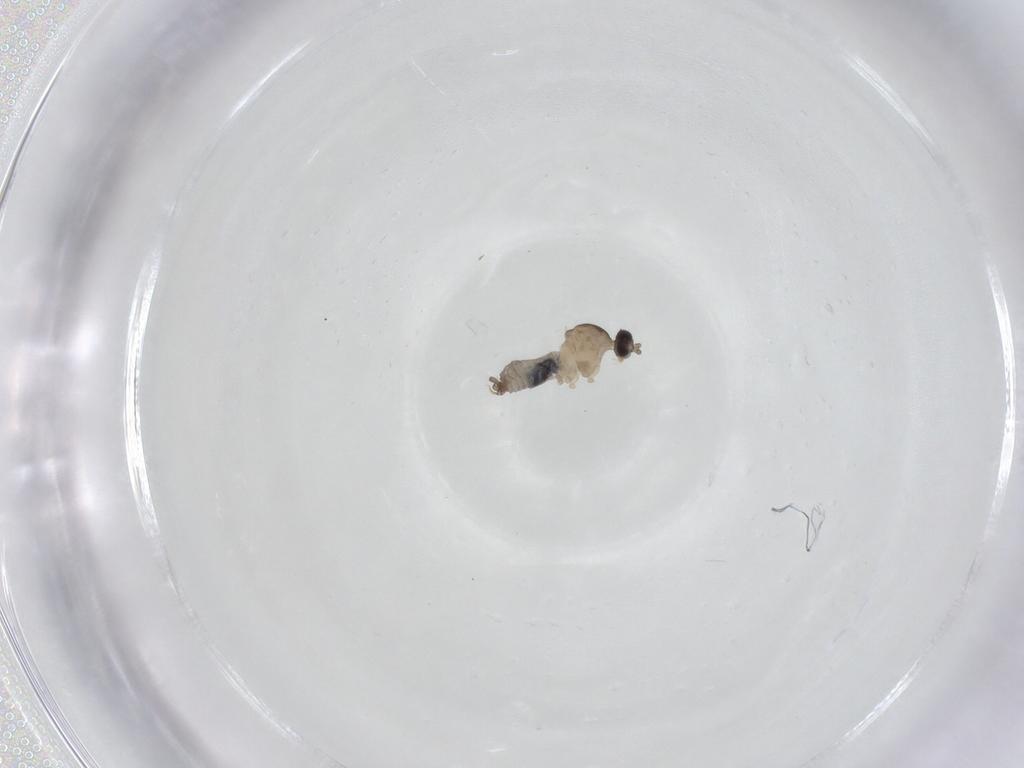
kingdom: Animalia
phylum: Arthropoda
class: Insecta
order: Diptera
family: Cecidomyiidae
